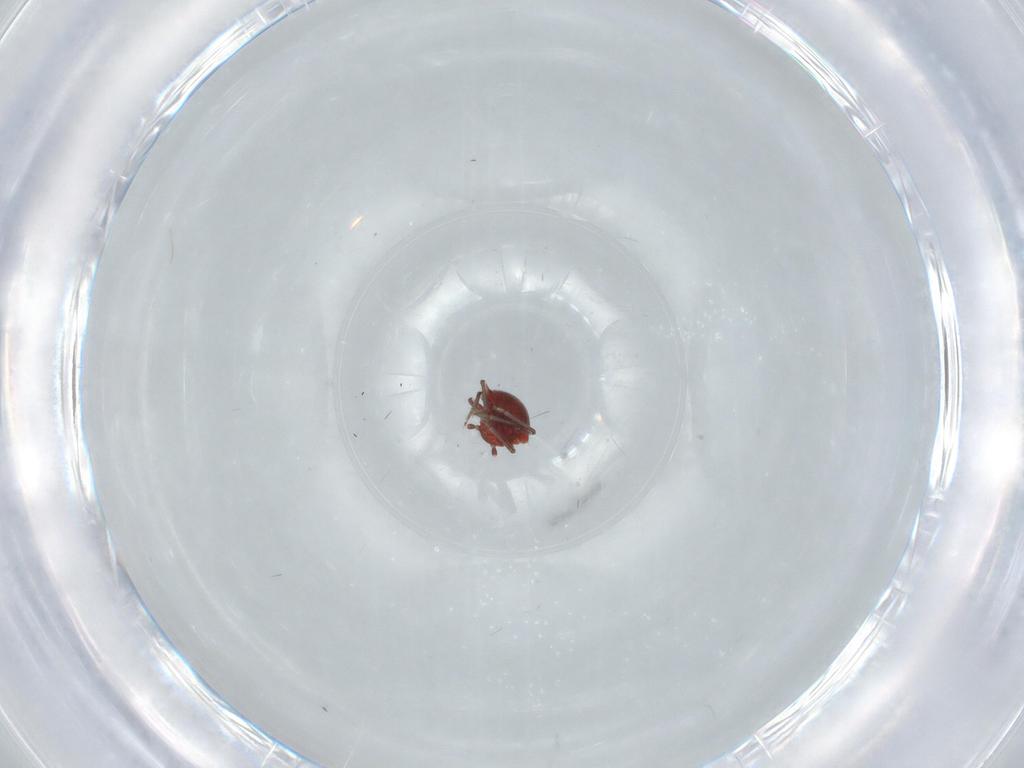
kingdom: Animalia
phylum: Arthropoda
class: Insecta
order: Hemiptera
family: Schizopteridae
